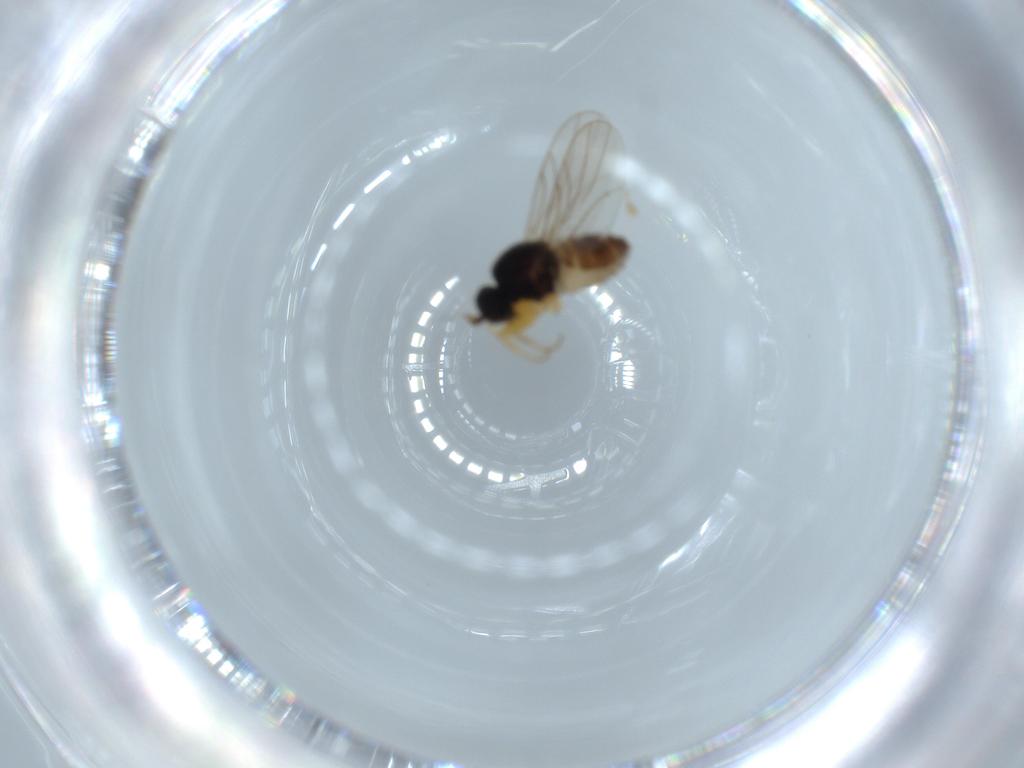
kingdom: Animalia
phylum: Arthropoda
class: Insecta
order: Diptera
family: Hybotidae
